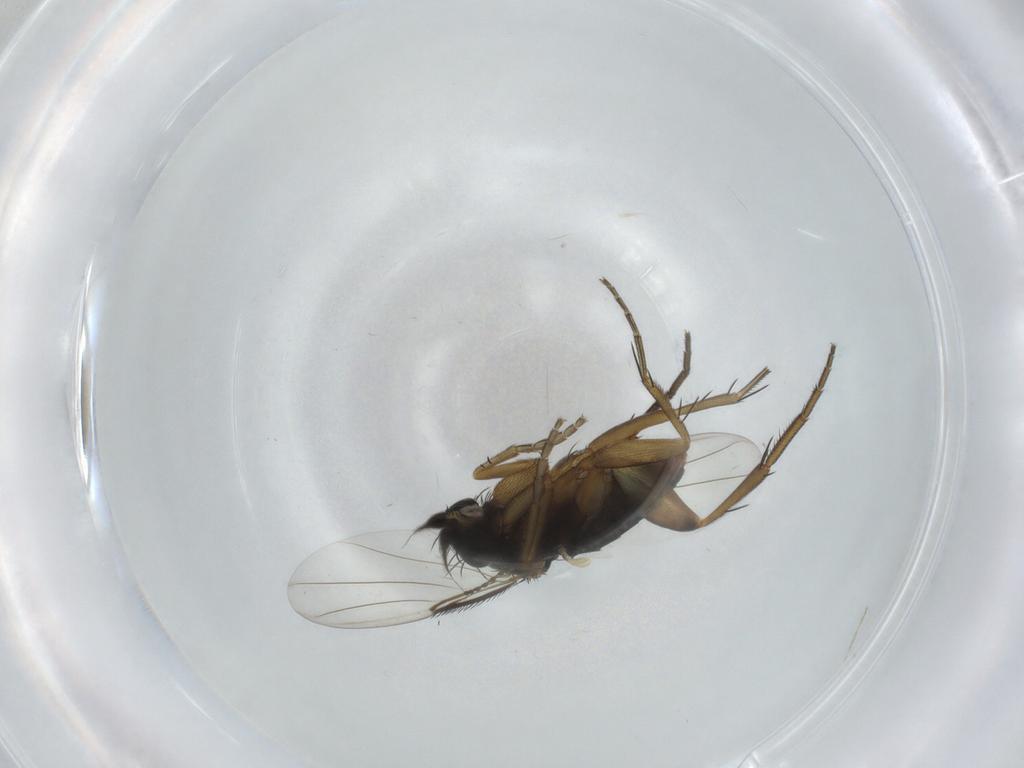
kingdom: Animalia
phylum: Arthropoda
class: Insecta
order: Diptera
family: Phoridae
